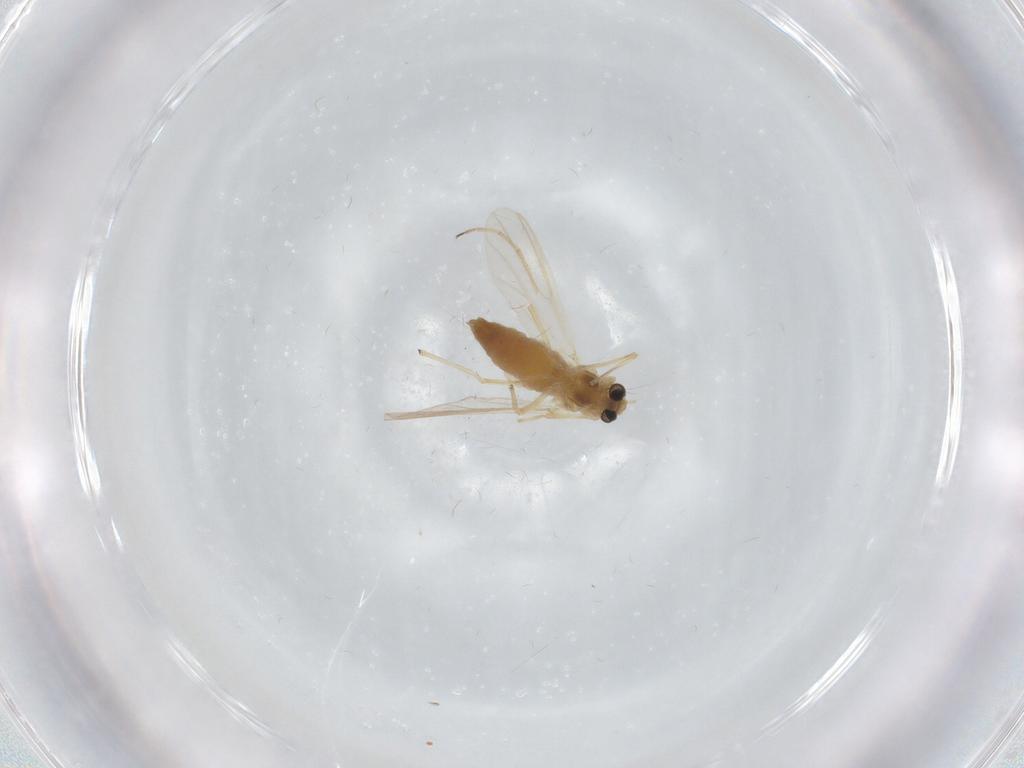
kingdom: Animalia
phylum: Arthropoda
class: Insecta
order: Diptera
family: Chironomidae
